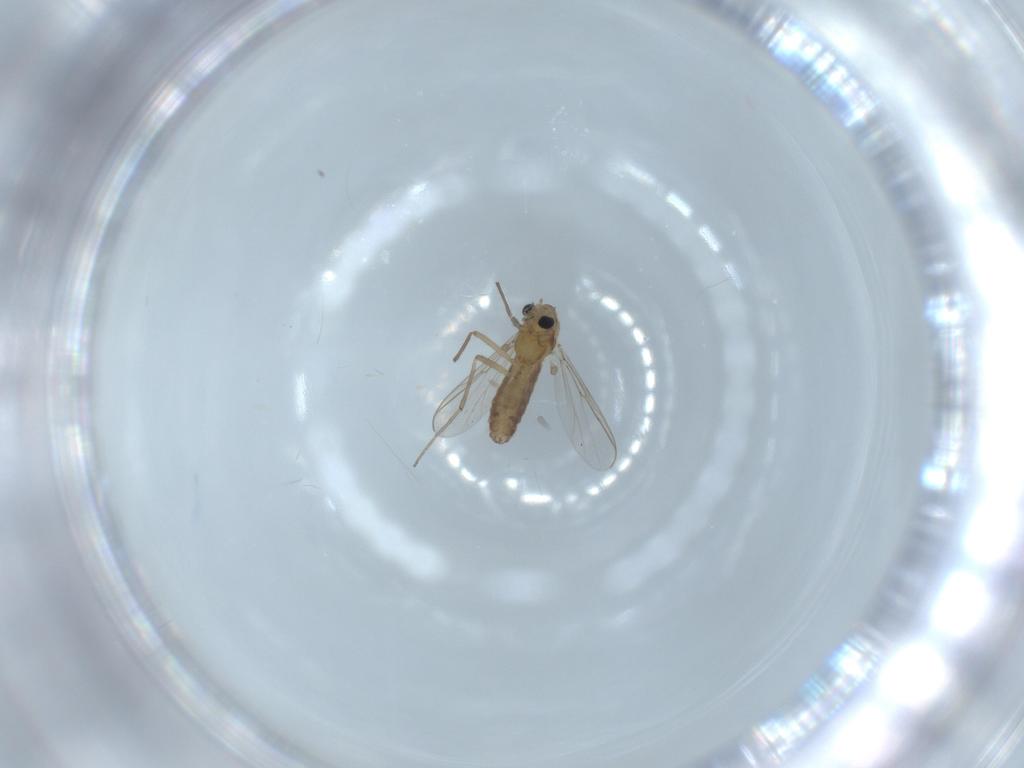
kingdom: Animalia
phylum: Arthropoda
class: Insecta
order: Diptera
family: Chironomidae
